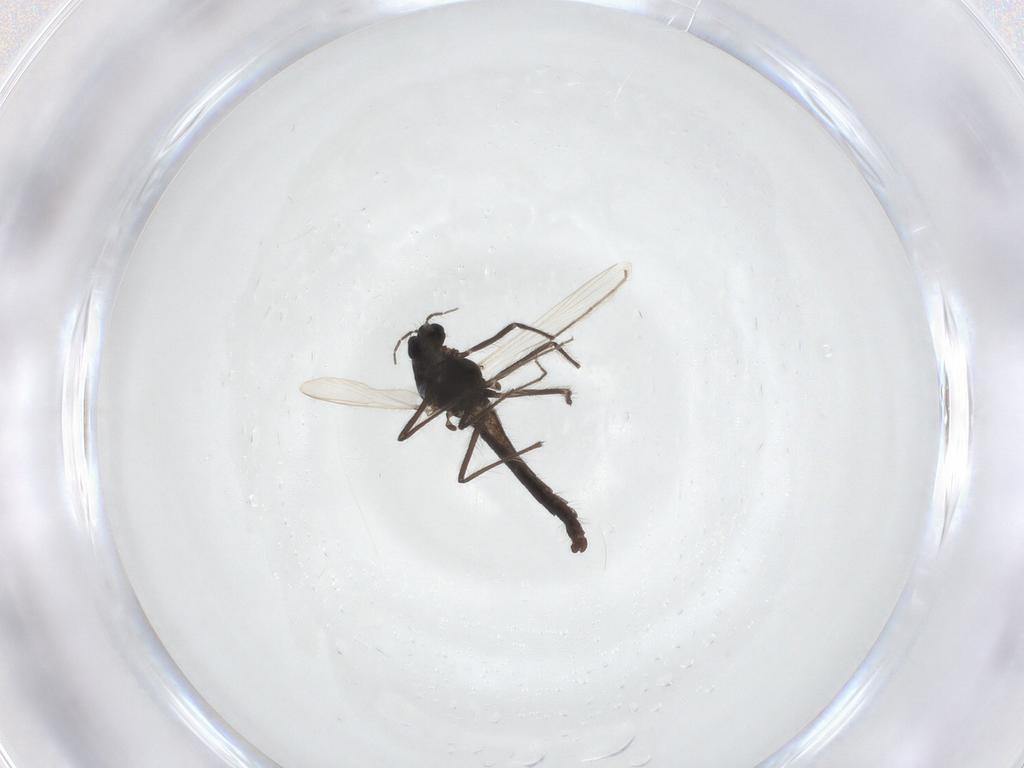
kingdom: Animalia
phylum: Arthropoda
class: Insecta
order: Diptera
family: Chironomidae
